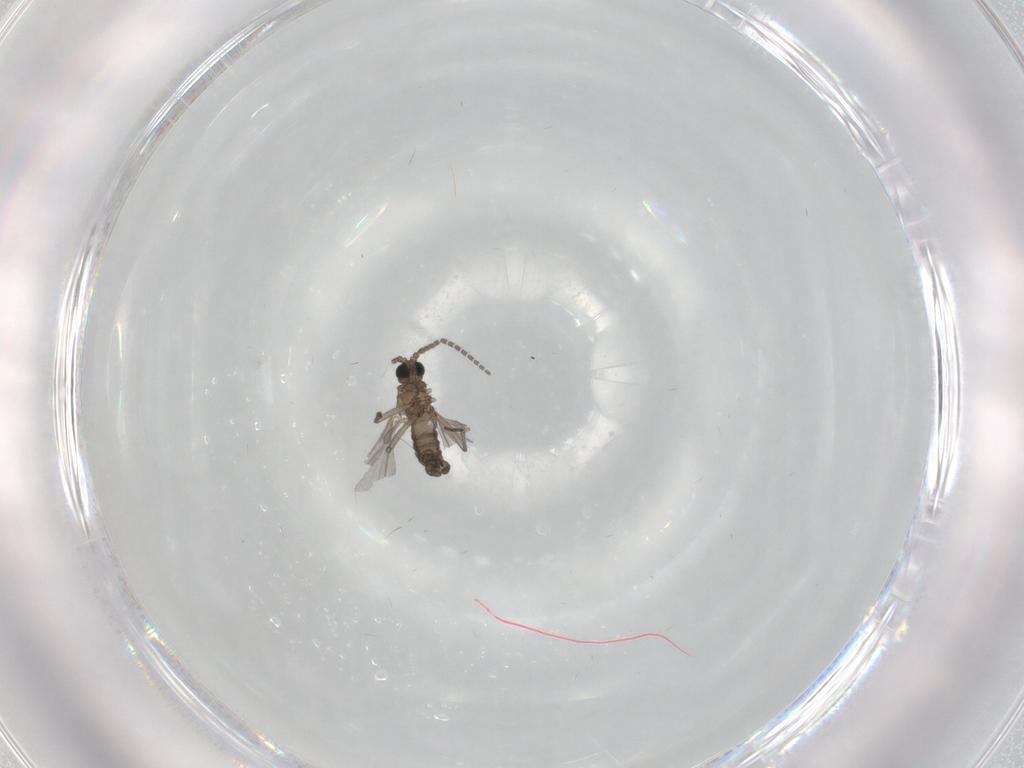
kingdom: Animalia
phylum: Arthropoda
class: Insecta
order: Diptera
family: Sciaridae
